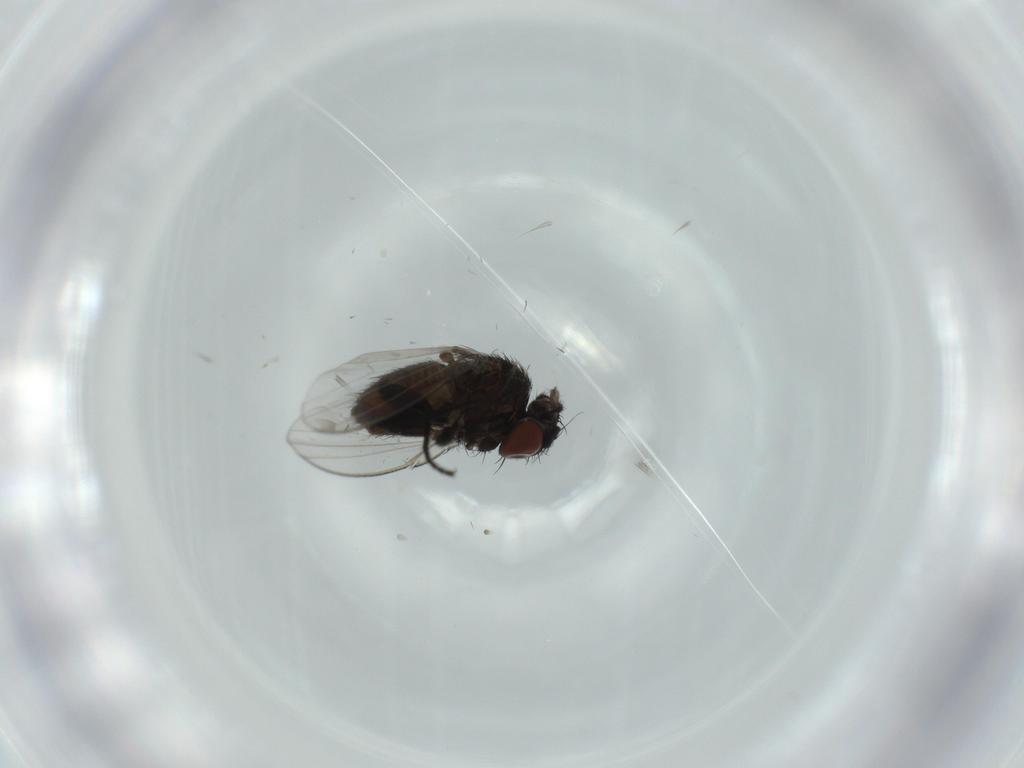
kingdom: Animalia
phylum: Arthropoda
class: Insecta
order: Diptera
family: Milichiidae
